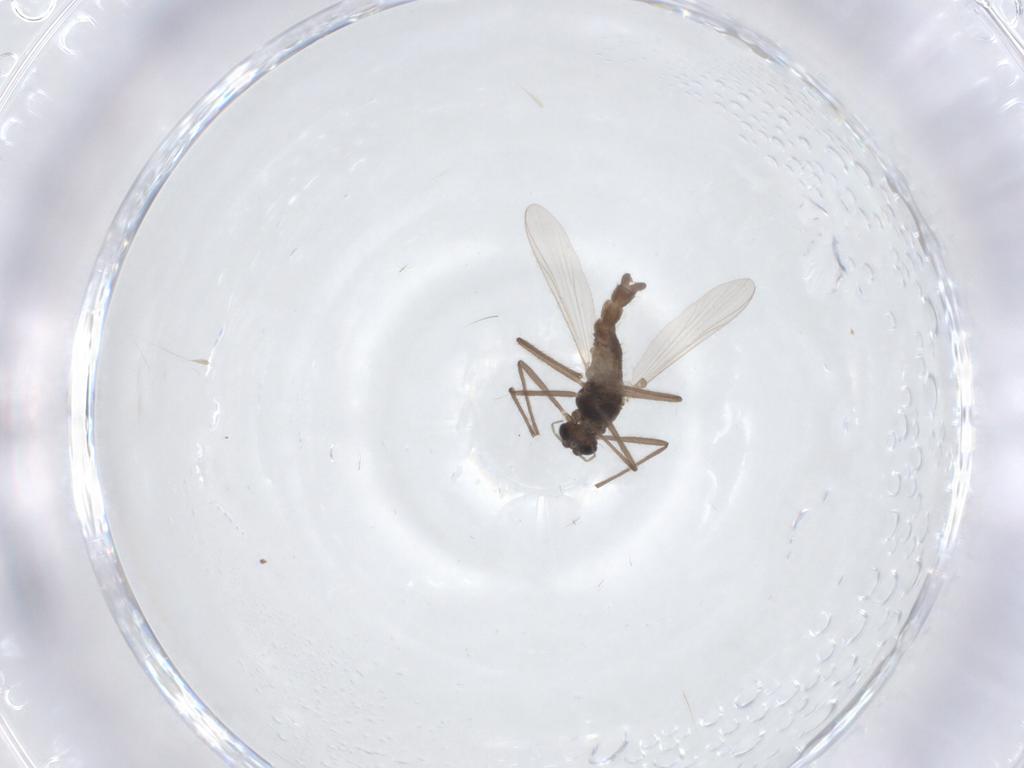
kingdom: Animalia
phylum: Arthropoda
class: Insecta
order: Diptera
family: Chironomidae
